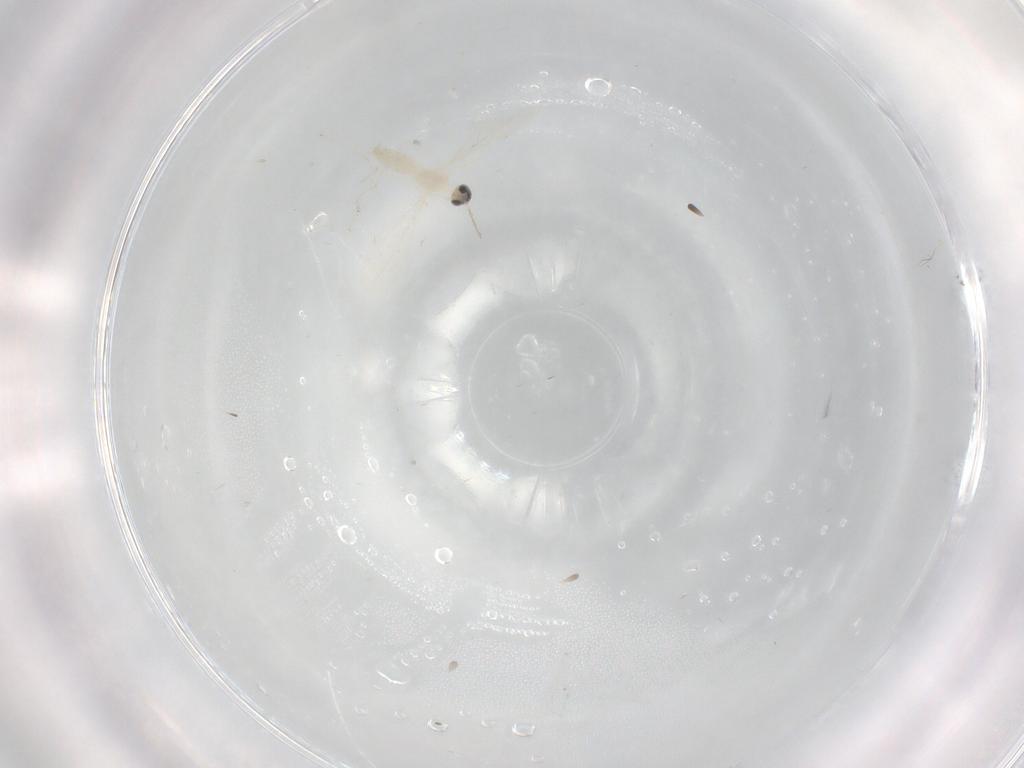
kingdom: Animalia
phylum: Arthropoda
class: Insecta
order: Diptera
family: Cecidomyiidae
